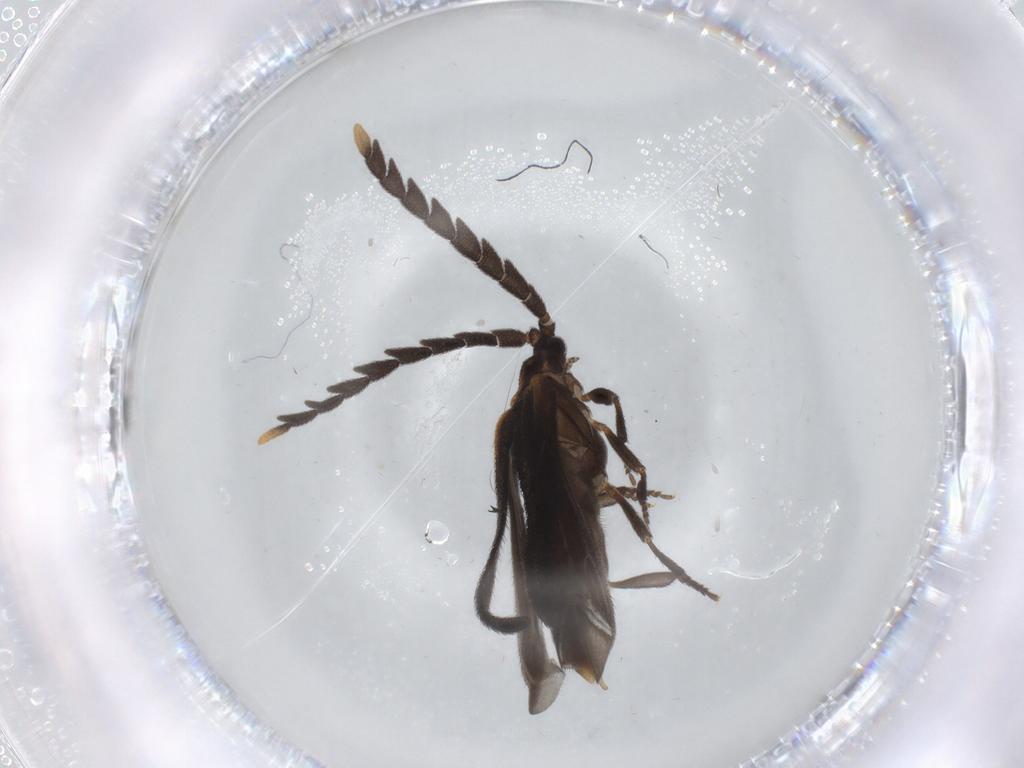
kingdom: Animalia
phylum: Arthropoda
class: Insecta
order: Coleoptera
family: Lycidae
